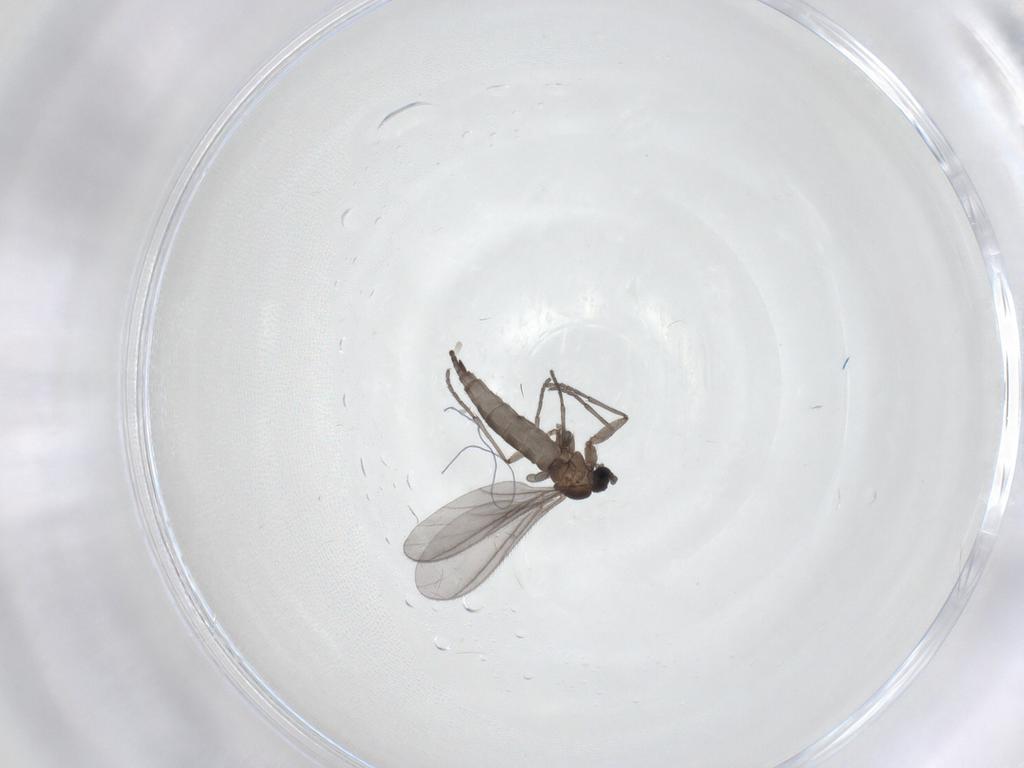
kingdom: Animalia
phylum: Arthropoda
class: Insecta
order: Diptera
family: Sciaridae
